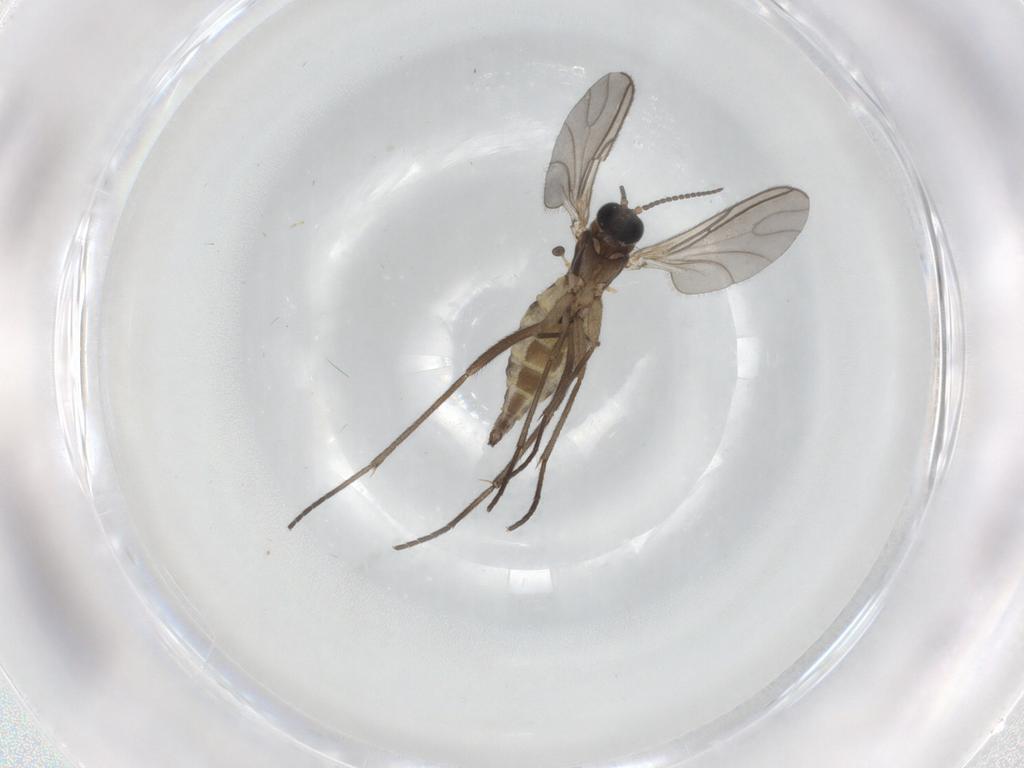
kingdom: Animalia
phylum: Arthropoda
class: Insecta
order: Diptera
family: Sciaridae
